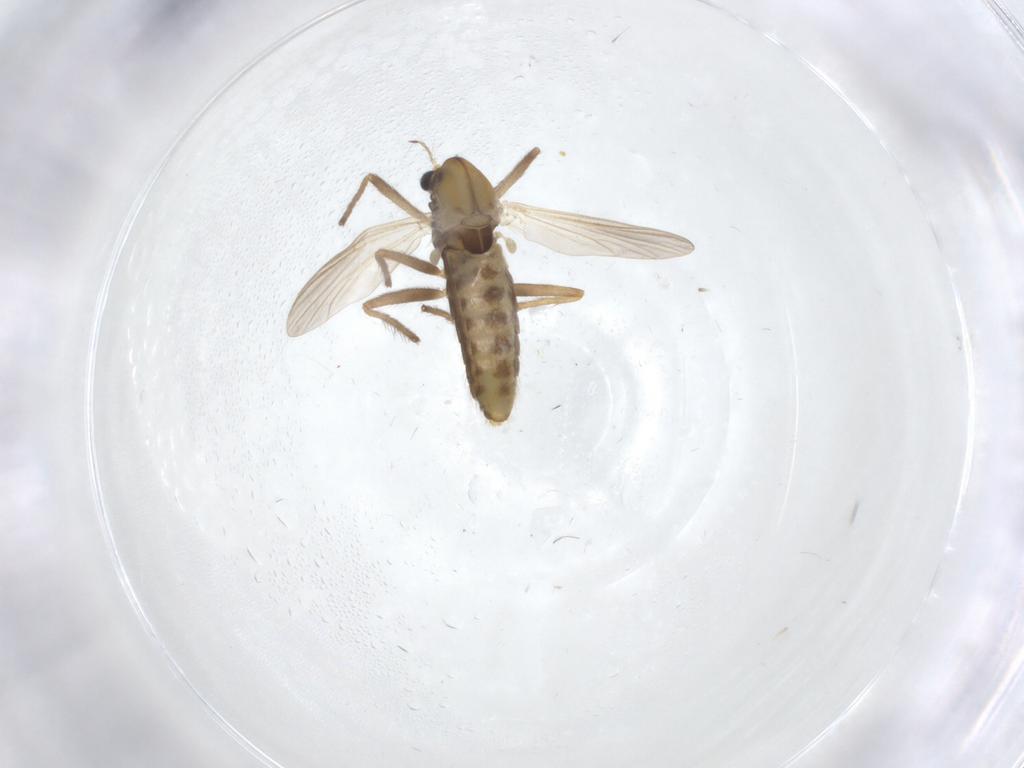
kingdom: Animalia
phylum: Arthropoda
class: Insecta
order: Diptera
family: Chironomidae
